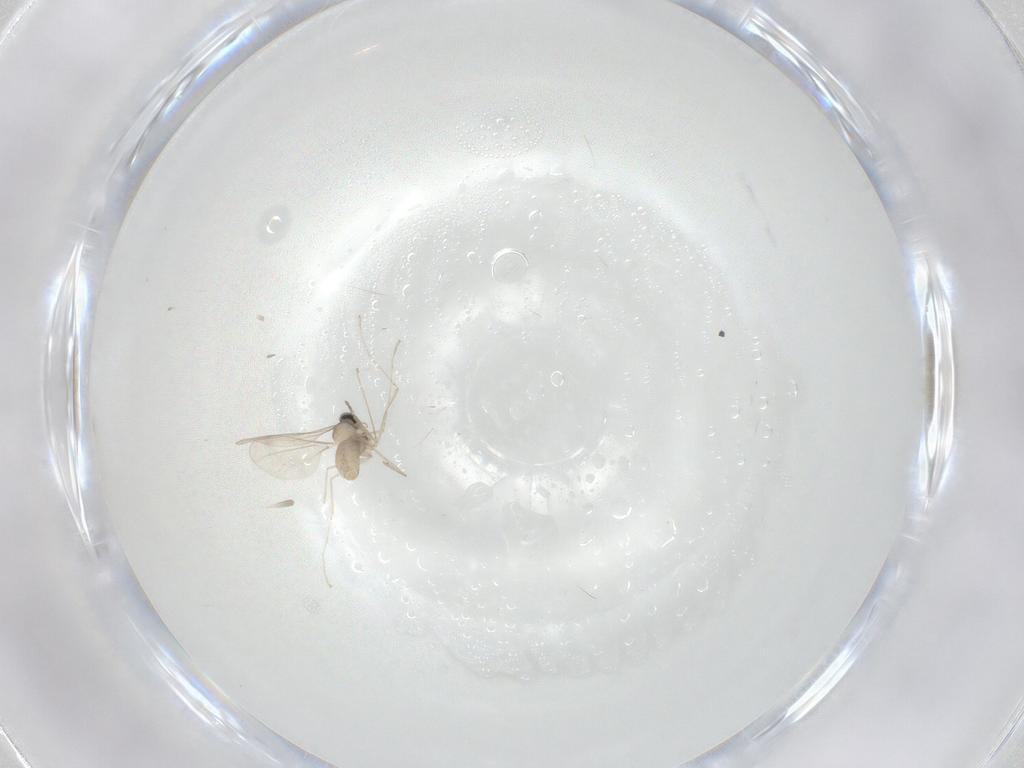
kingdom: Animalia
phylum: Arthropoda
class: Insecta
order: Diptera
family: Cecidomyiidae
